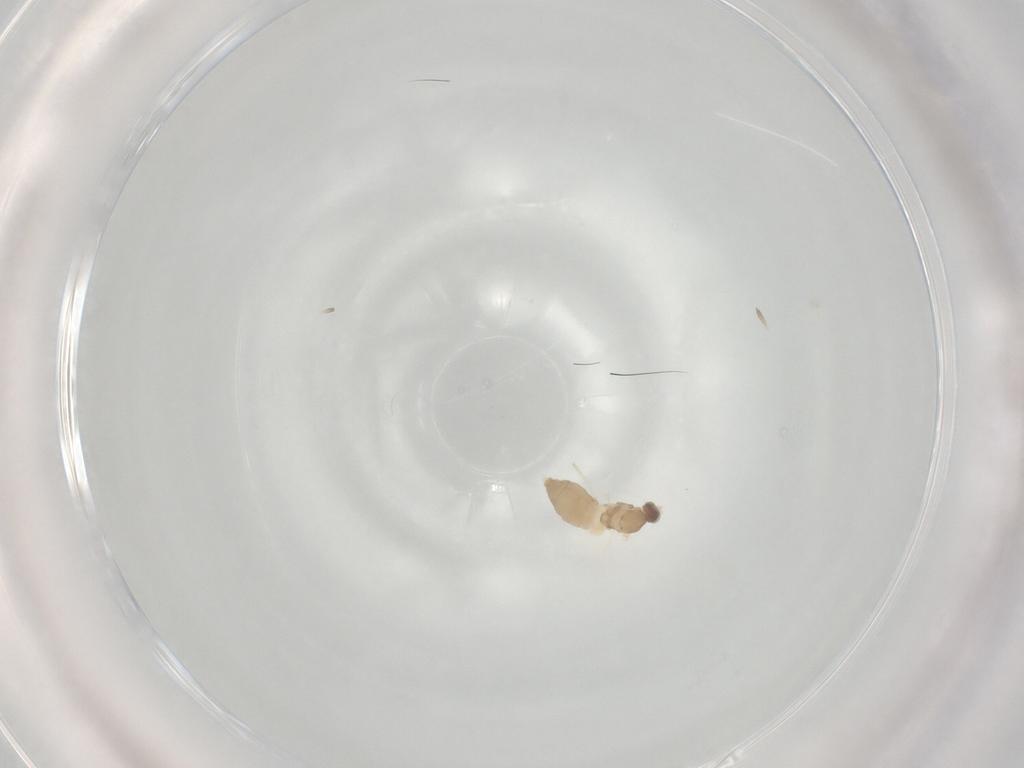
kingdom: Animalia
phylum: Arthropoda
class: Insecta
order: Diptera
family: Cecidomyiidae
